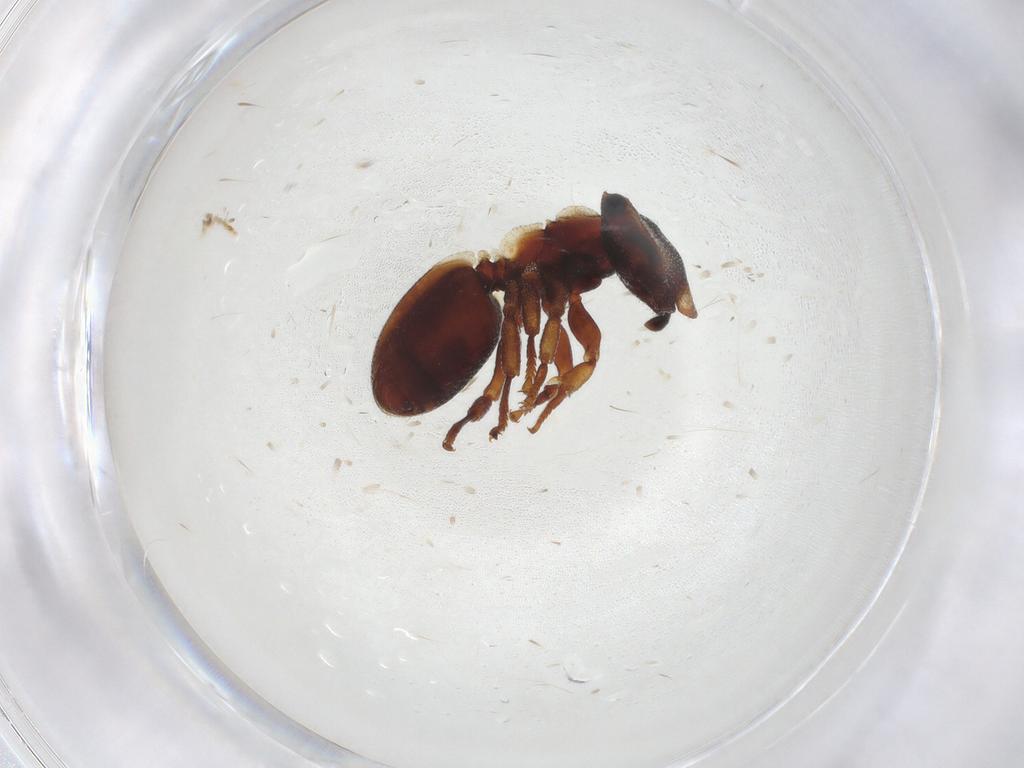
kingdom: Animalia
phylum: Arthropoda
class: Insecta
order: Hymenoptera
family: Formicidae
